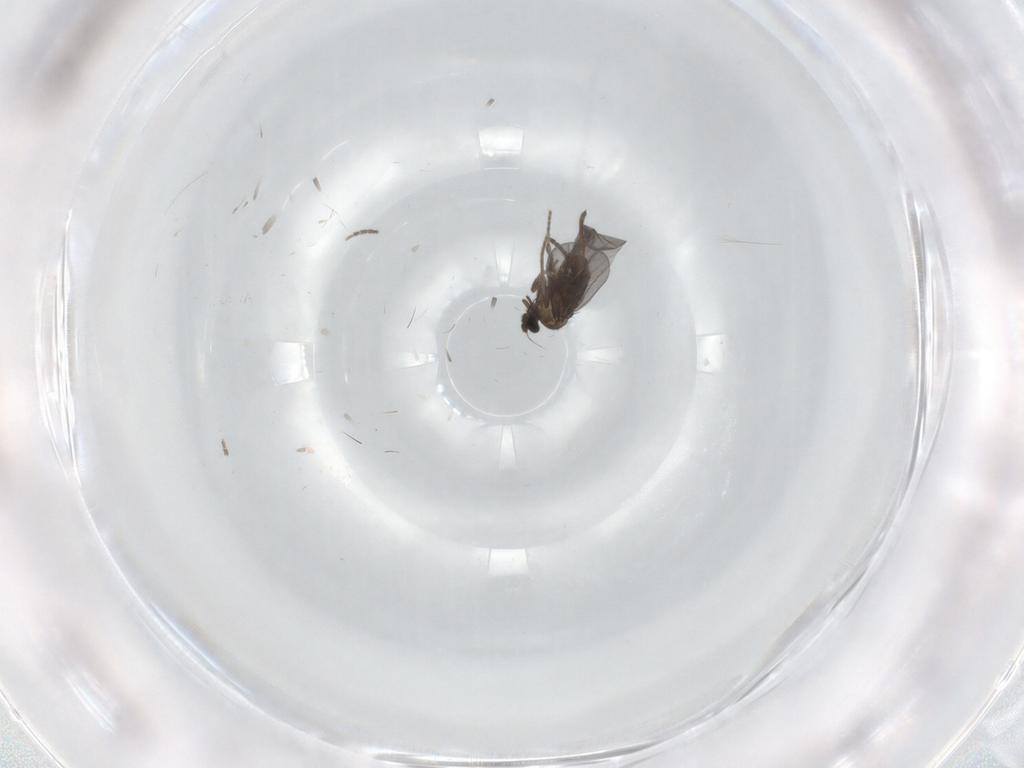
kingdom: Animalia
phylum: Arthropoda
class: Insecta
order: Diptera
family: Phoridae
